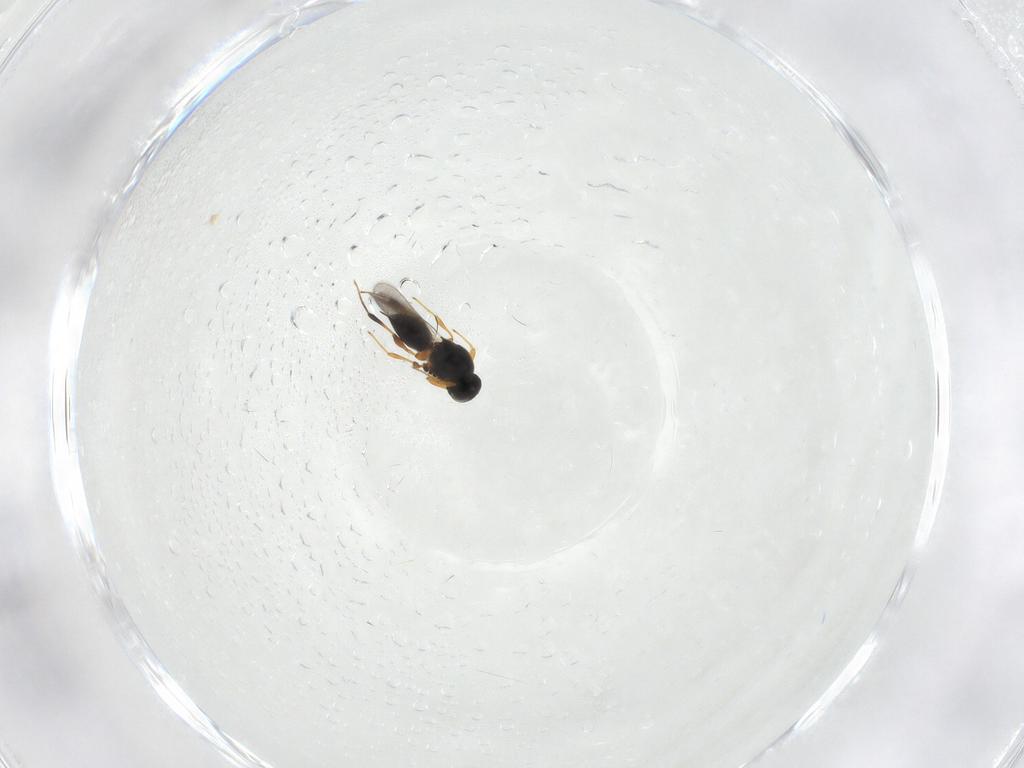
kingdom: Animalia
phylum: Arthropoda
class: Insecta
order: Hymenoptera
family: Platygastridae
